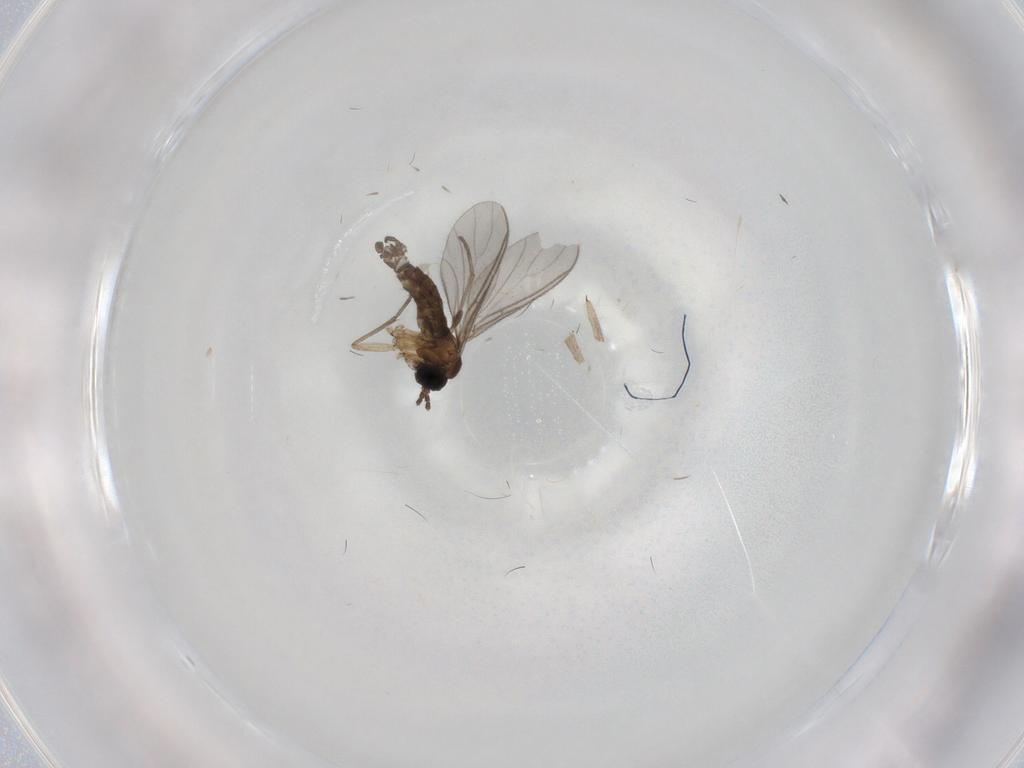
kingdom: Animalia
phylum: Arthropoda
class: Insecta
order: Diptera
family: Sciaridae
